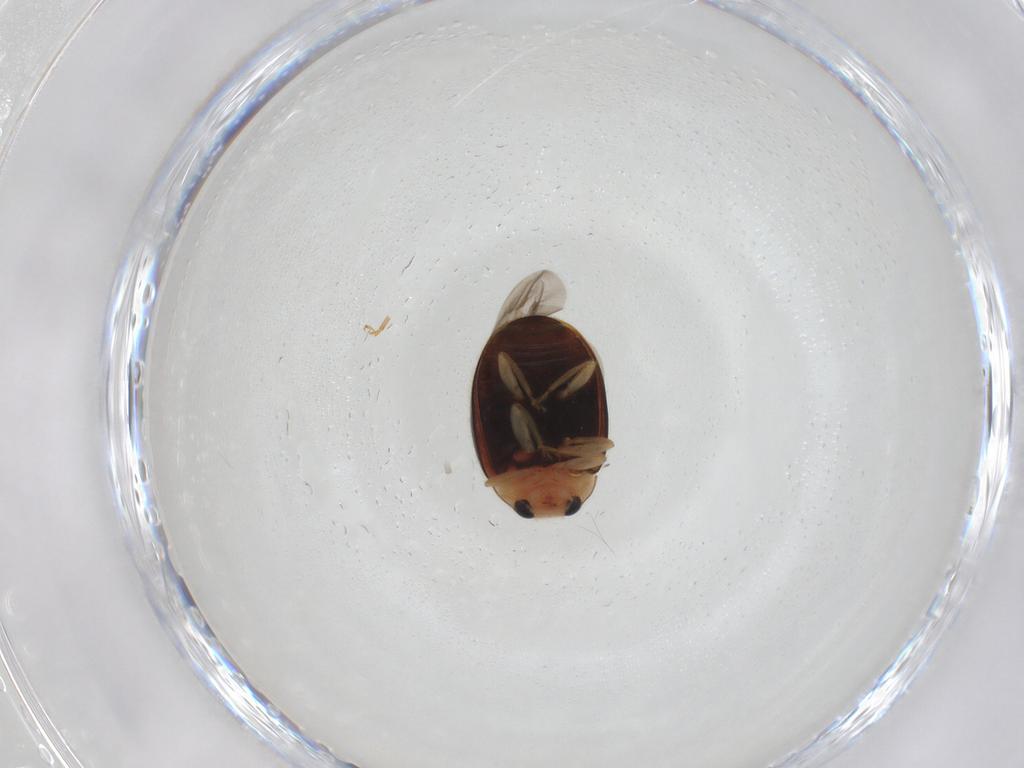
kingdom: Animalia
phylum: Arthropoda
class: Insecta
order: Coleoptera
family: Coccinellidae
